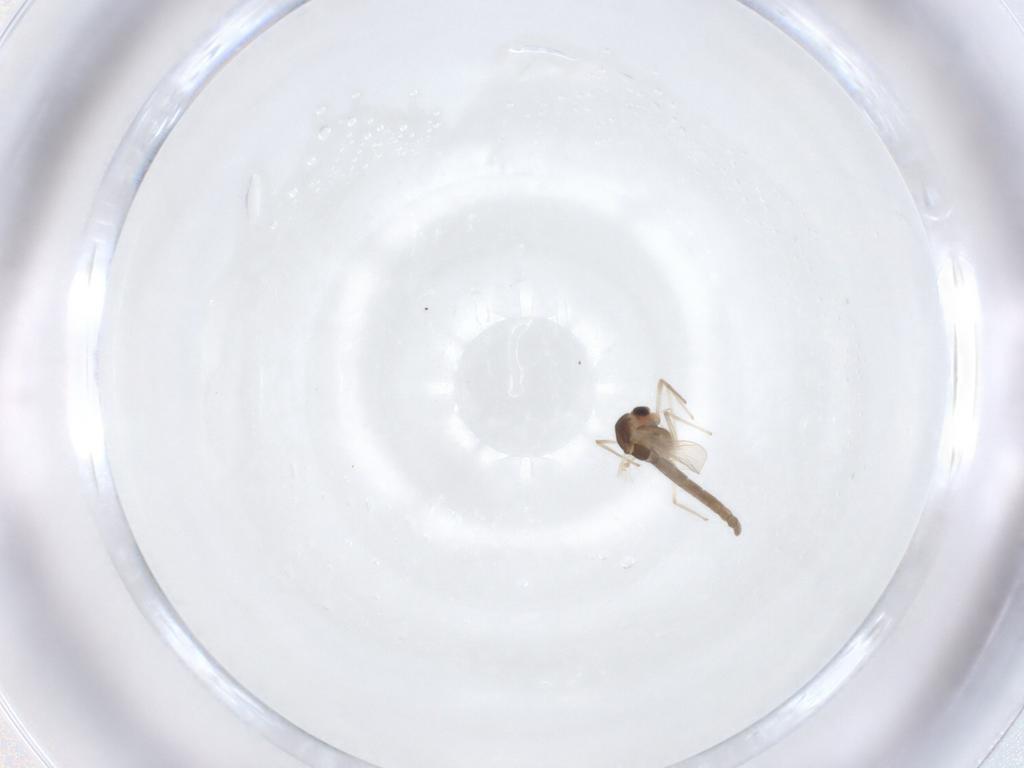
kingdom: Animalia
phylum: Arthropoda
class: Insecta
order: Diptera
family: Chironomidae
